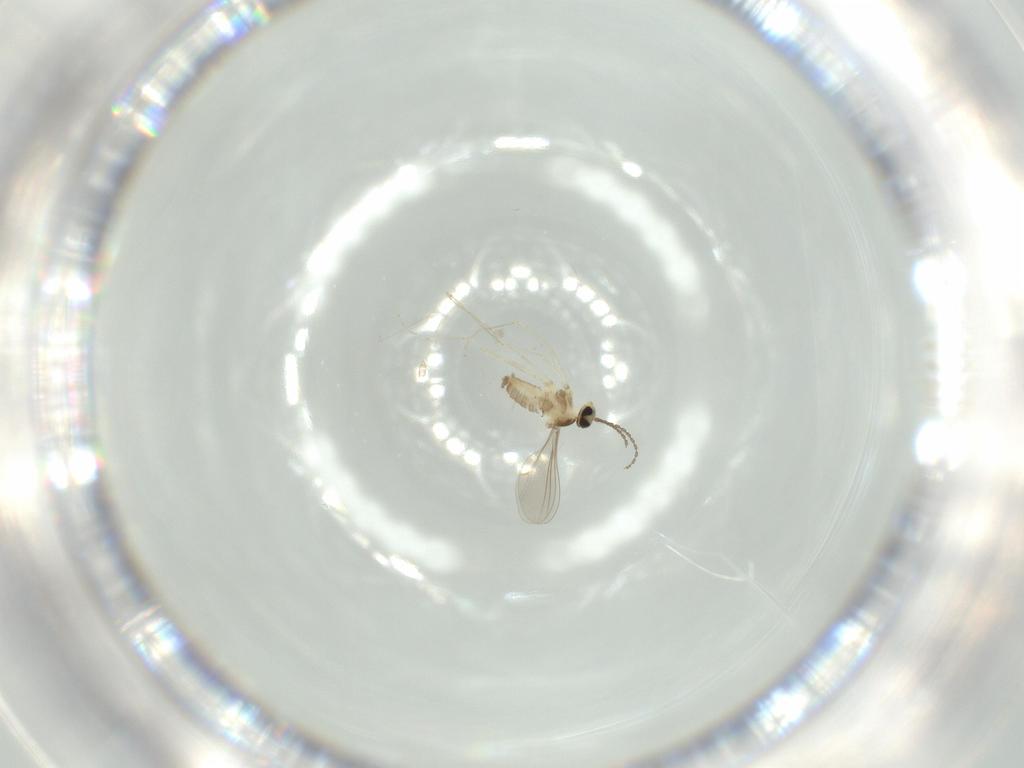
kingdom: Animalia
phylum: Arthropoda
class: Insecta
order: Diptera
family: Cecidomyiidae
